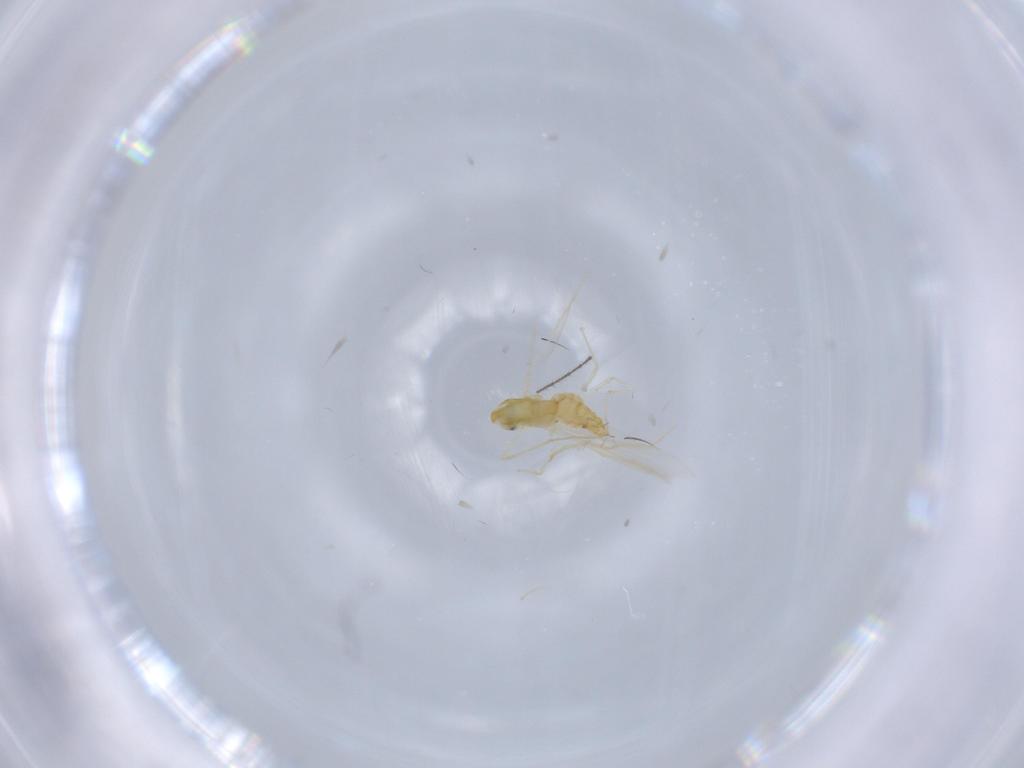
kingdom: Animalia
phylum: Arthropoda
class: Insecta
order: Diptera
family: Chironomidae
